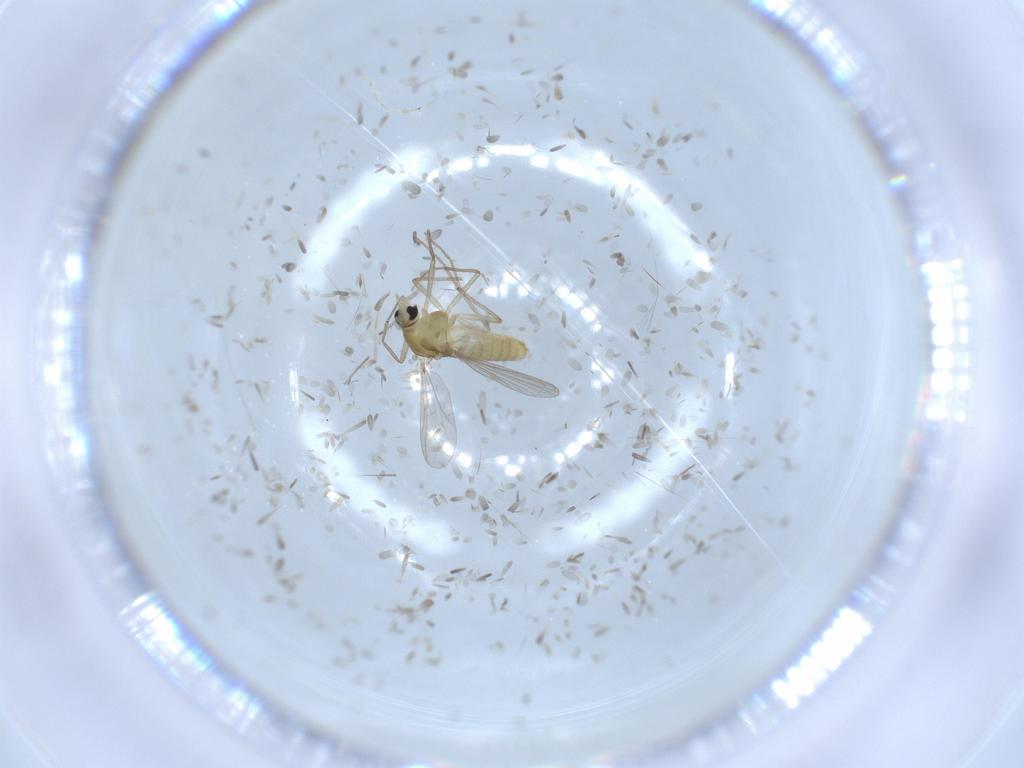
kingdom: Animalia
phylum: Arthropoda
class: Insecta
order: Diptera
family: Chironomidae
